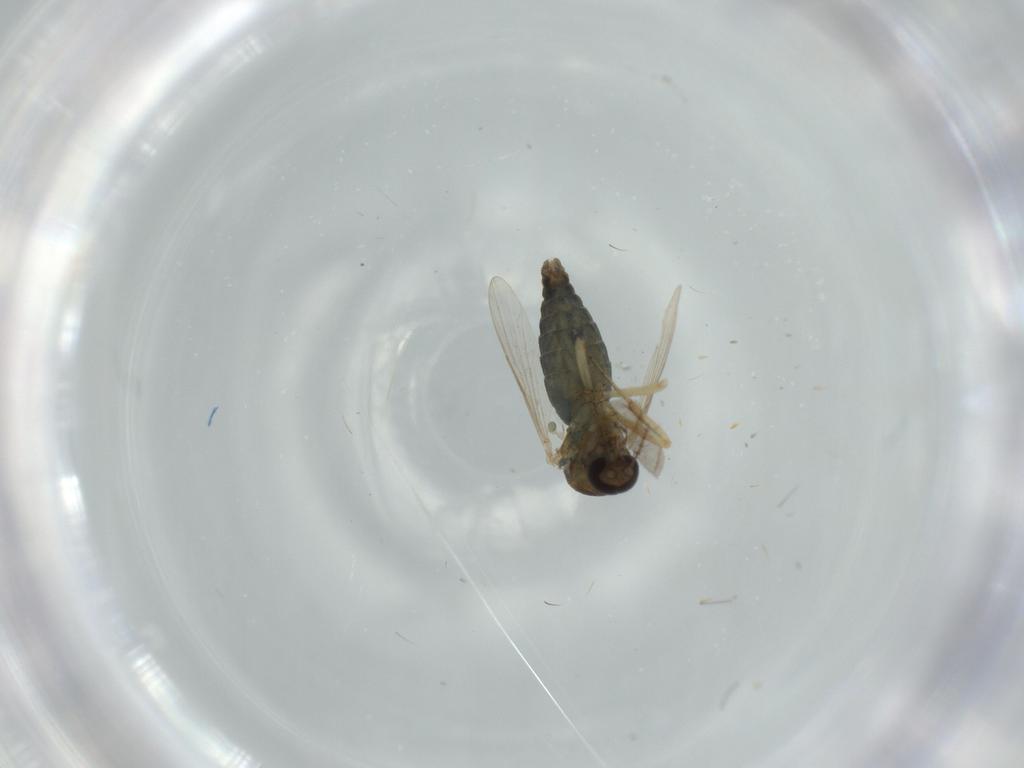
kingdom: Animalia
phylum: Arthropoda
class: Insecta
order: Diptera
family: Ceratopogonidae
